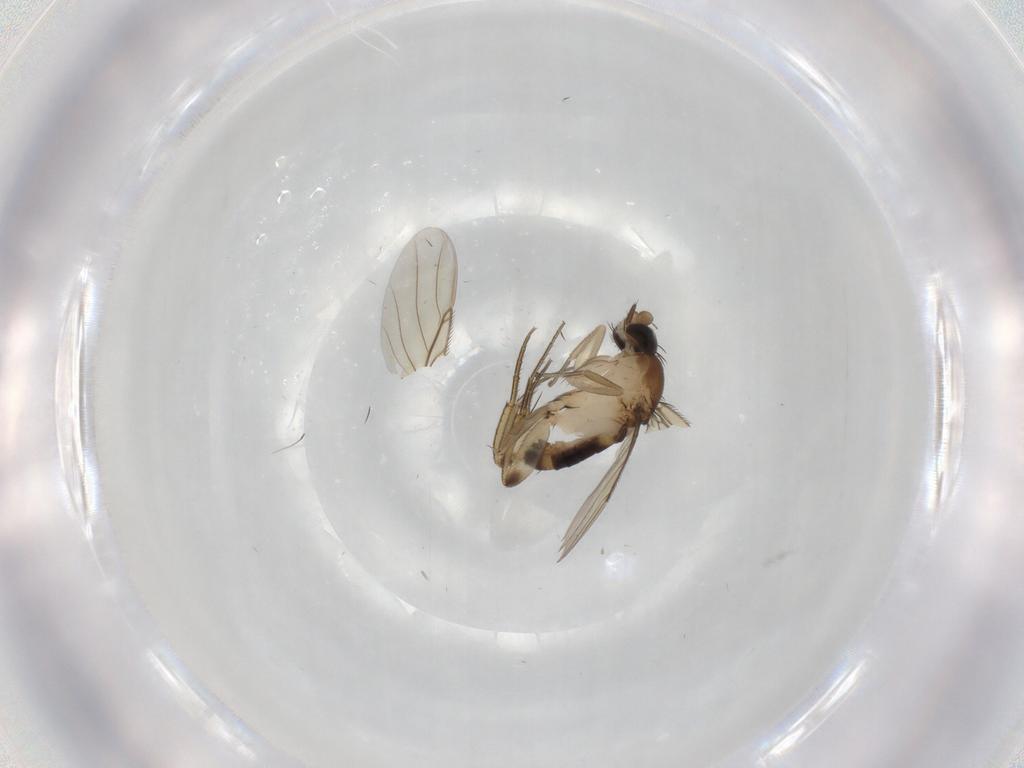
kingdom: Animalia
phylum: Arthropoda
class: Insecta
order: Diptera
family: Phoridae
